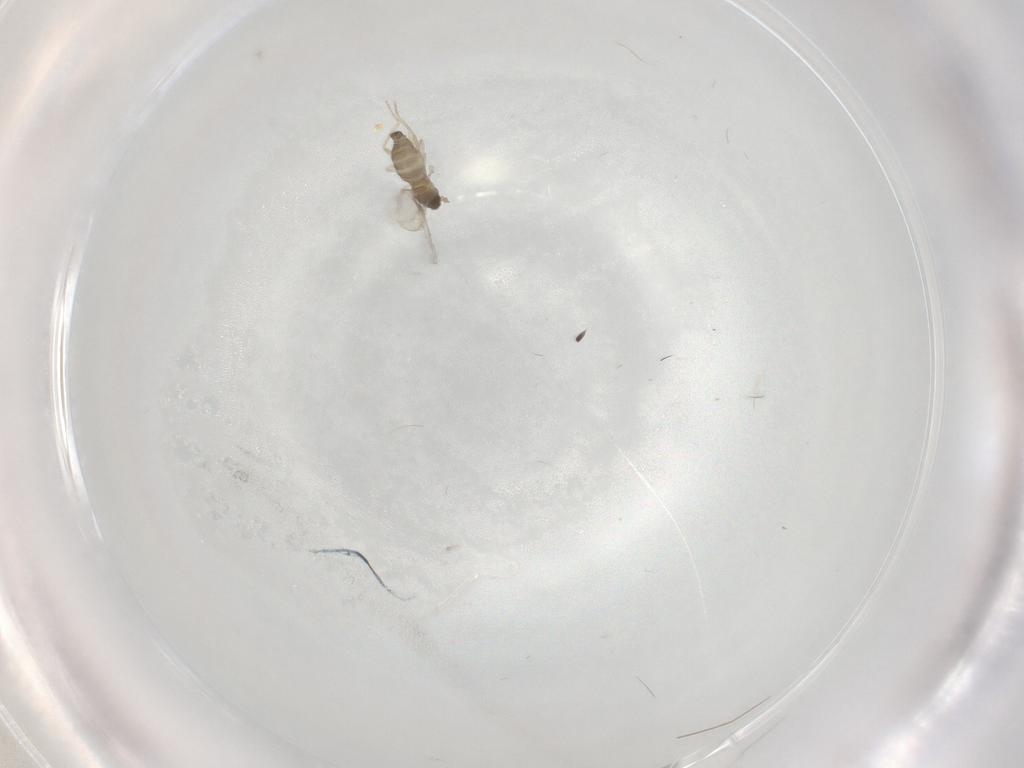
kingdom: Animalia
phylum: Arthropoda
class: Insecta
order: Diptera
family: Cecidomyiidae
